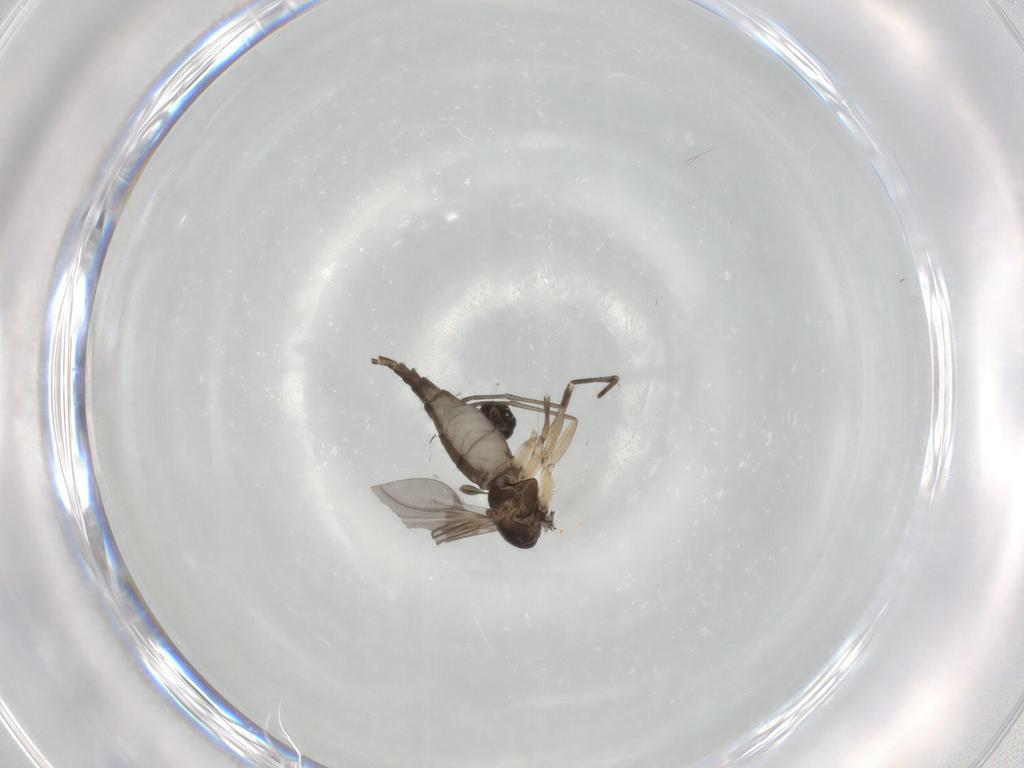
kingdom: Animalia
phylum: Arthropoda
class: Insecta
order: Diptera
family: Sciaridae
